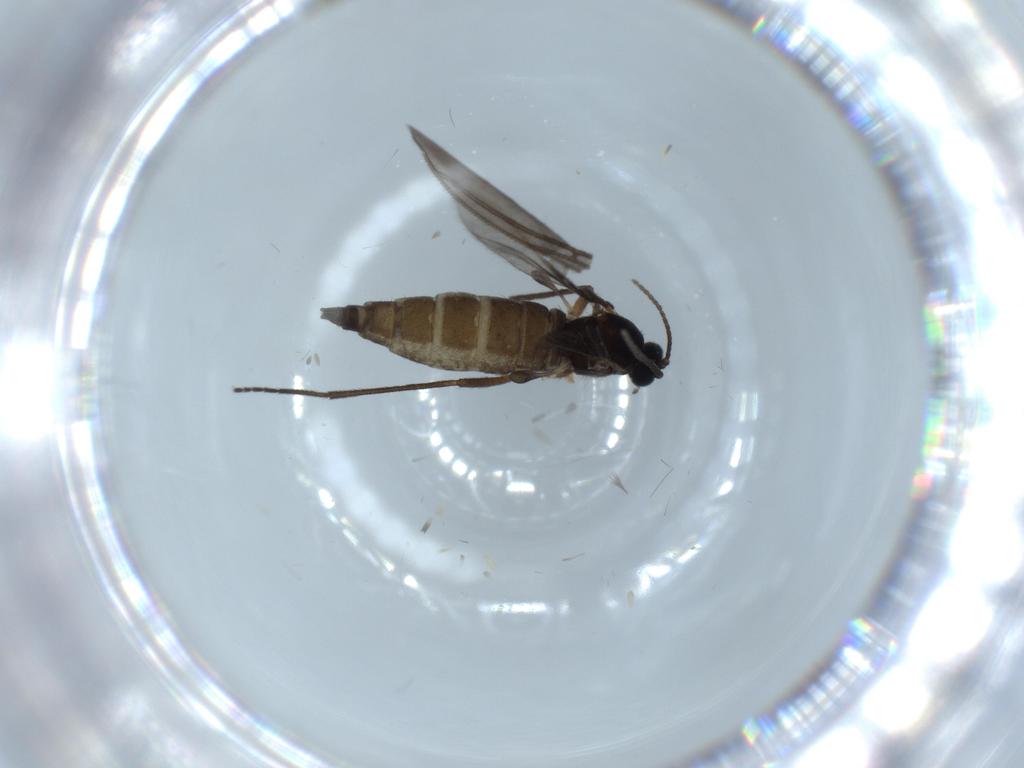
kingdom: Animalia
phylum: Arthropoda
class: Insecta
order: Diptera
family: Sciaridae
